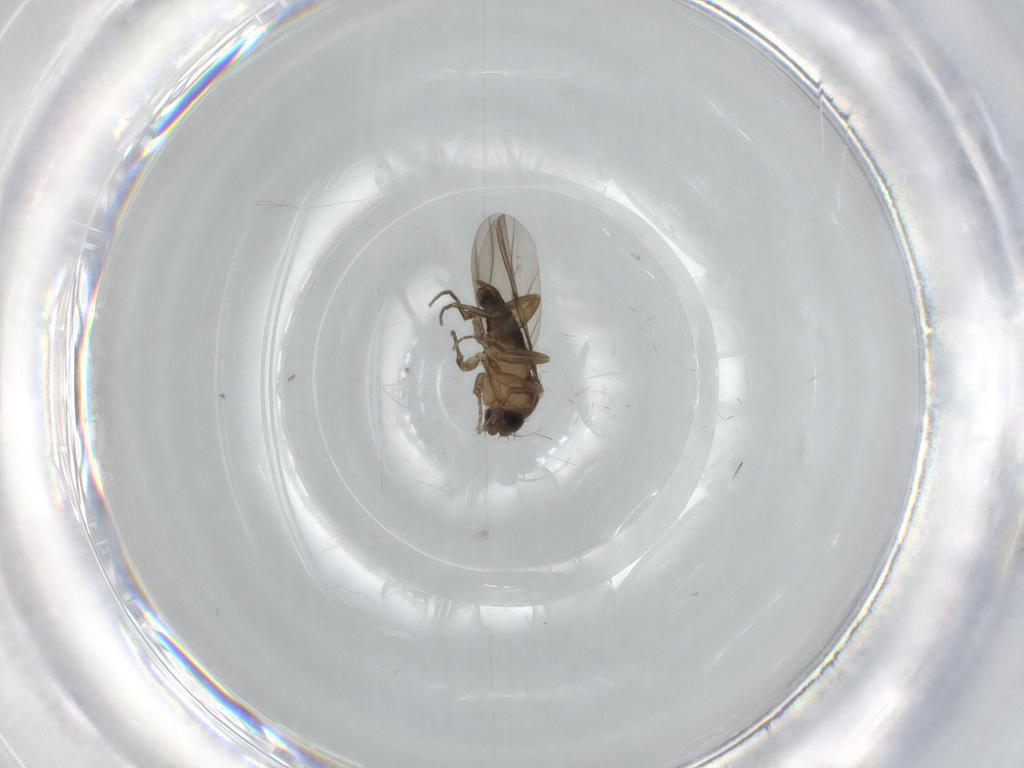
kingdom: Animalia
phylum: Arthropoda
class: Insecta
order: Diptera
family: Phoridae
